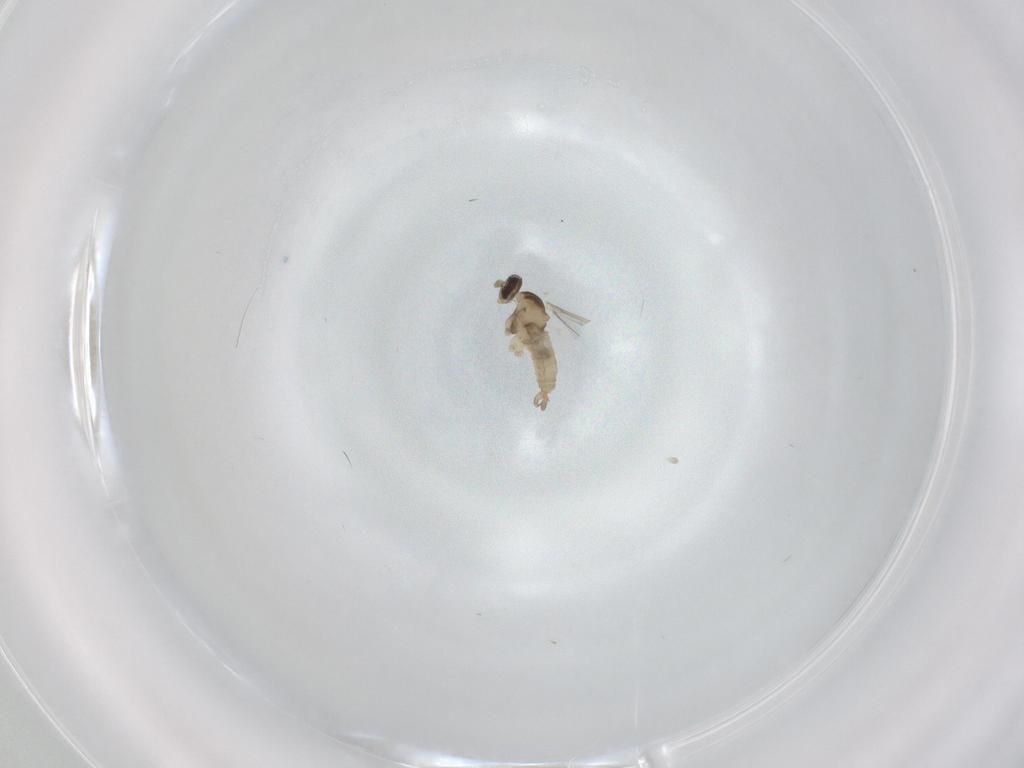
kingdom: Animalia
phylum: Arthropoda
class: Insecta
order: Diptera
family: Cecidomyiidae
